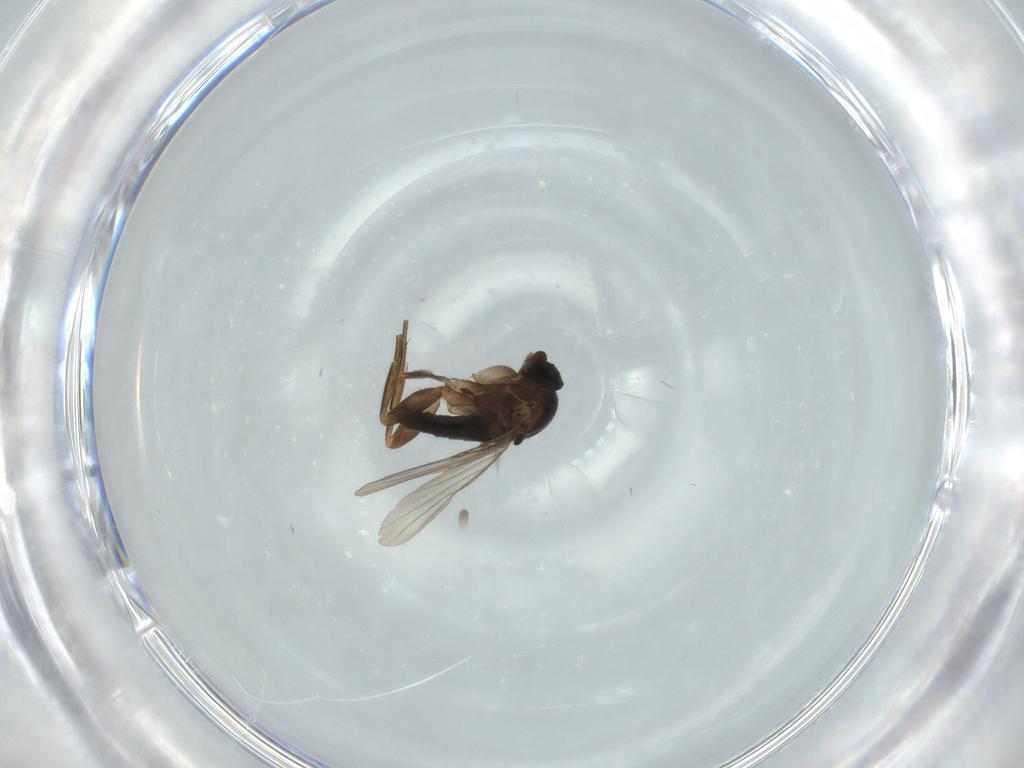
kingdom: Animalia
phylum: Arthropoda
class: Insecta
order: Diptera
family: Phoridae
